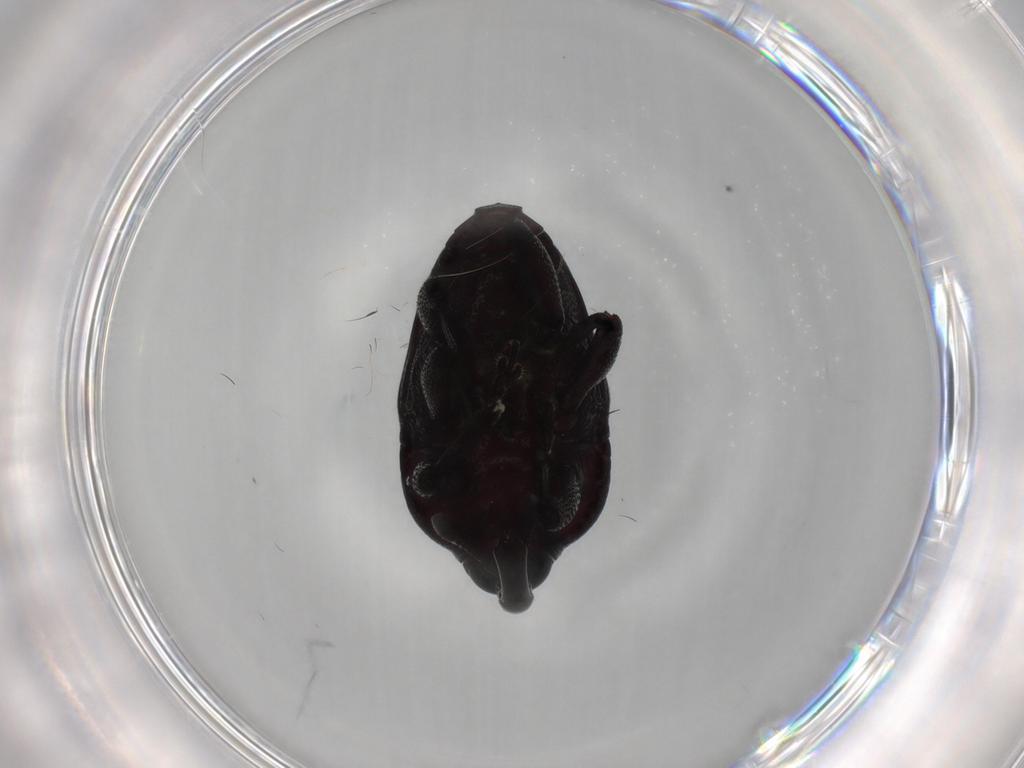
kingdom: Animalia
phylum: Arthropoda
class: Insecta
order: Coleoptera
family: Curculionidae
